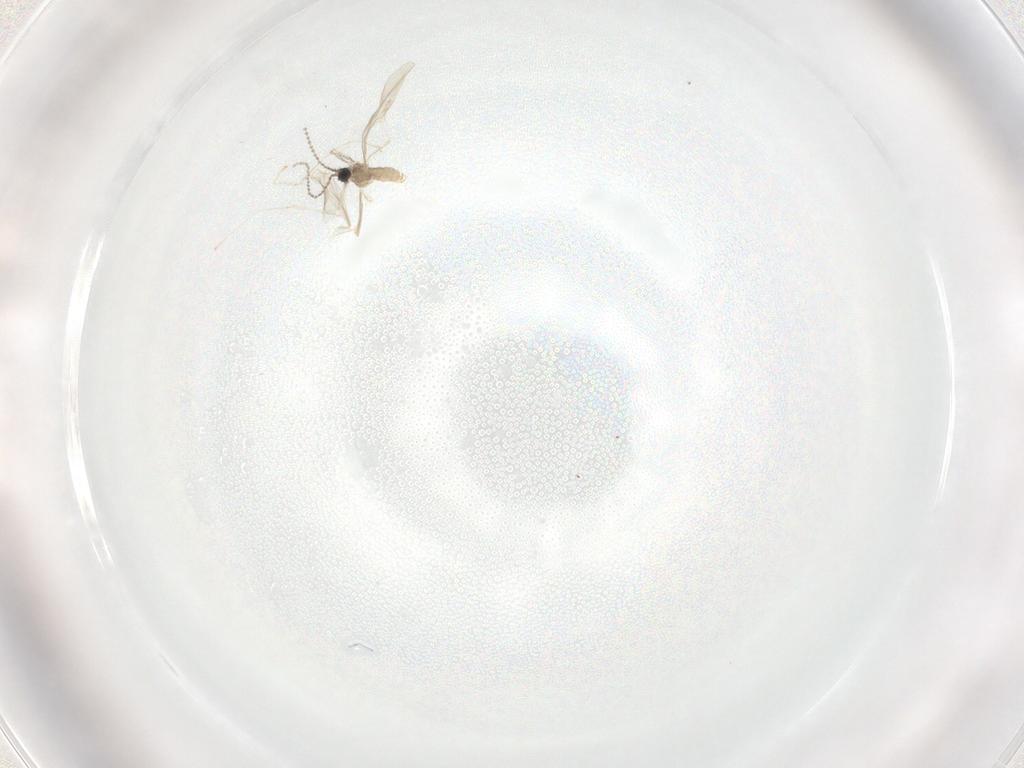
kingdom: Animalia
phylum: Arthropoda
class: Insecta
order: Diptera
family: Cecidomyiidae
